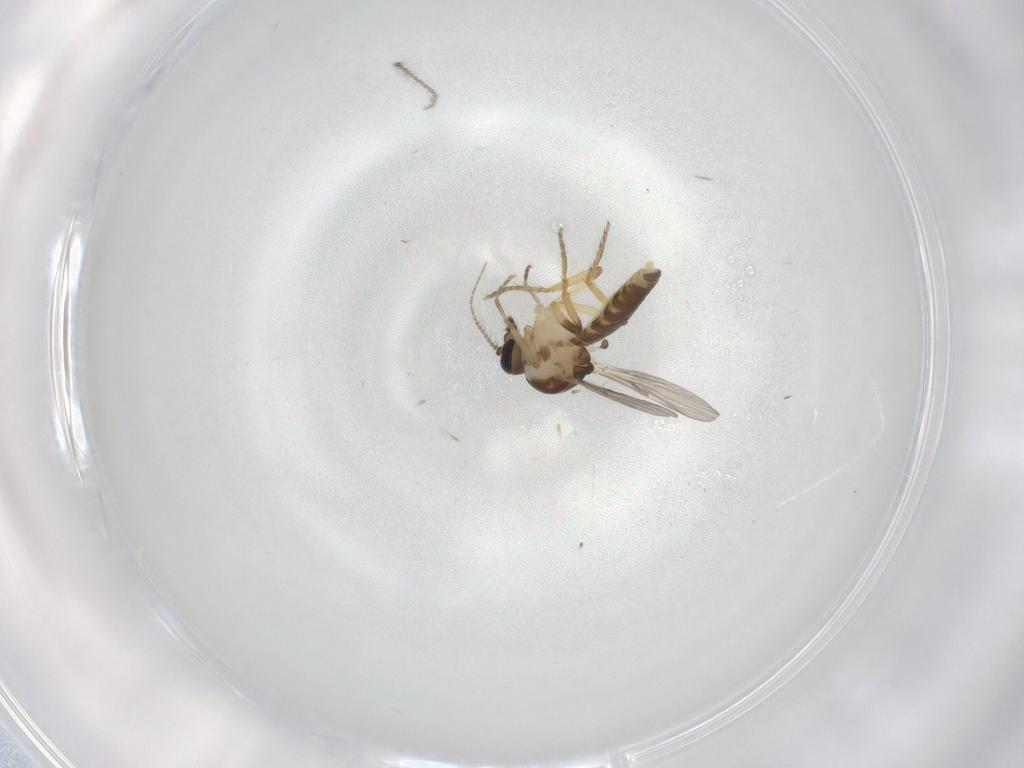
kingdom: Animalia
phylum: Arthropoda
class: Insecta
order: Diptera
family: Limoniidae
